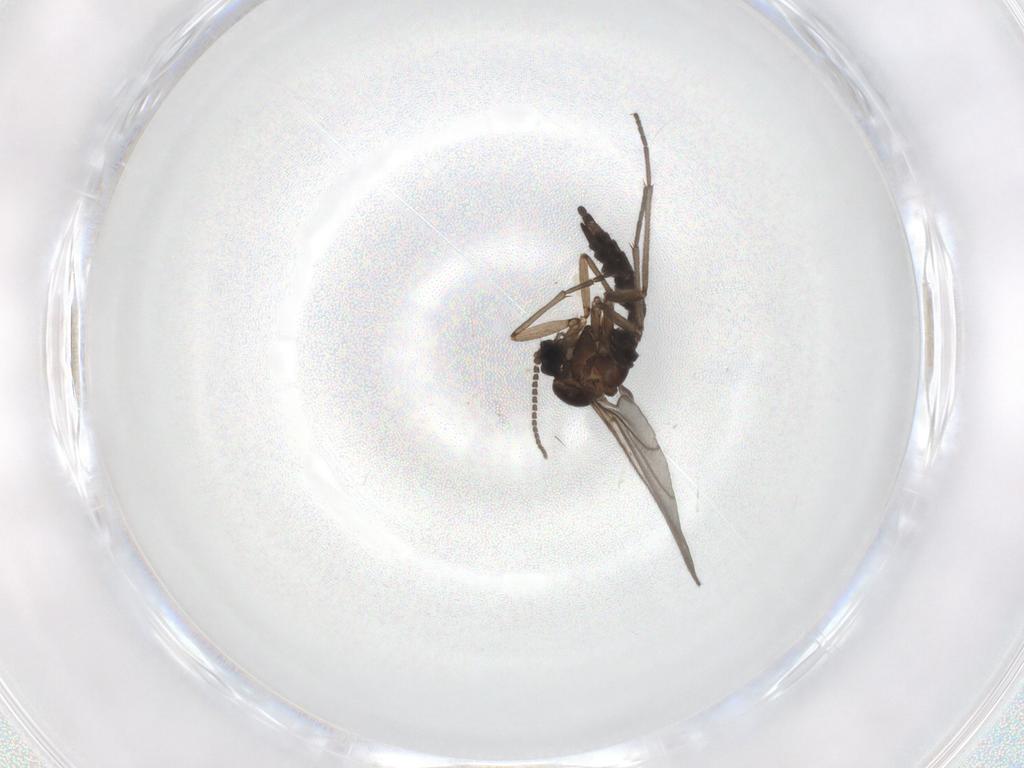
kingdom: Animalia
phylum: Arthropoda
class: Insecta
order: Diptera
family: Sciaridae
